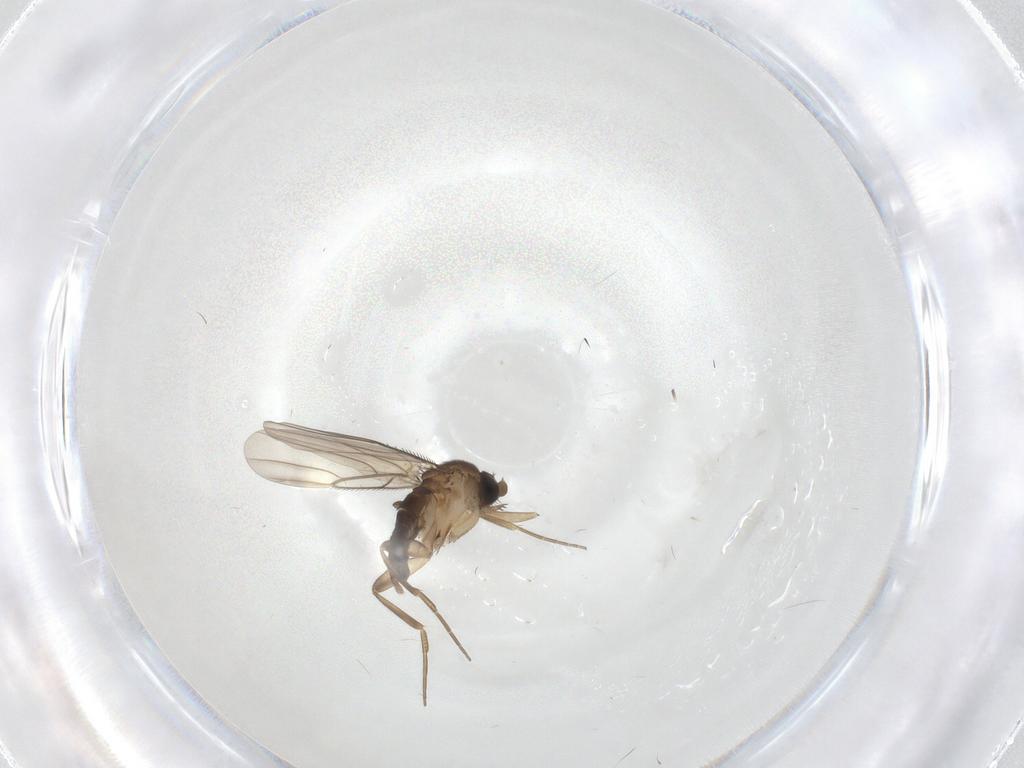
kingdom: Animalia
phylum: Arthropoda
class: Insecta
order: Diptera
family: Phoridae
